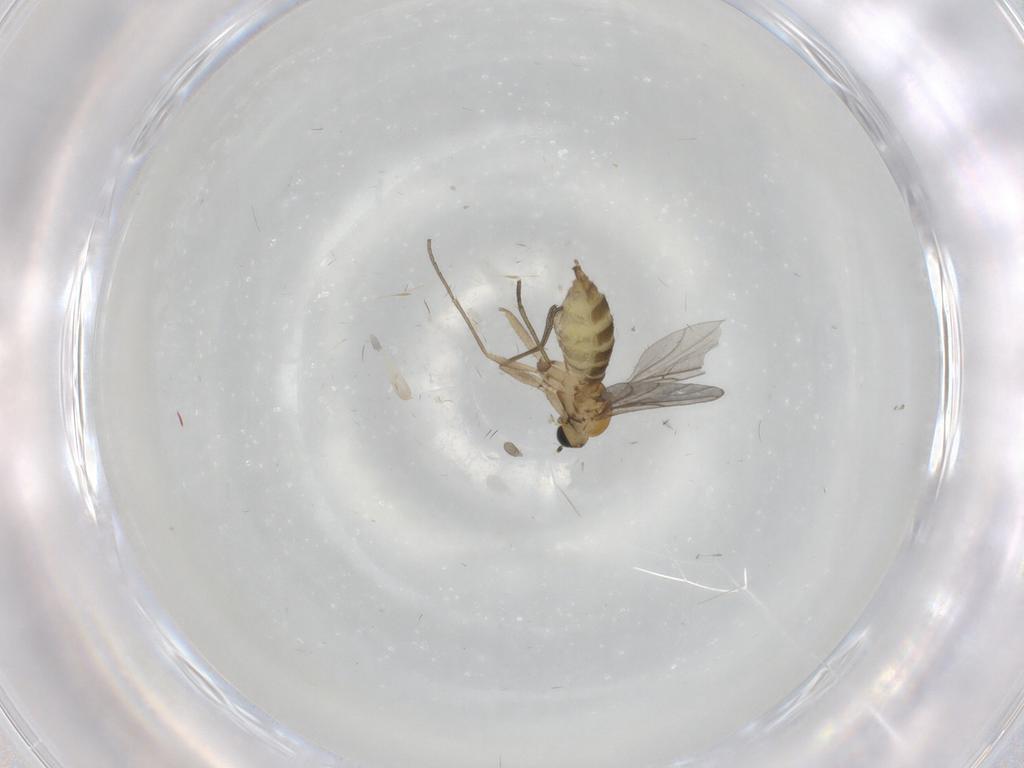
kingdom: Animalia
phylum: Arthropoda
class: Insecta
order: Diptera
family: Sciaridae
